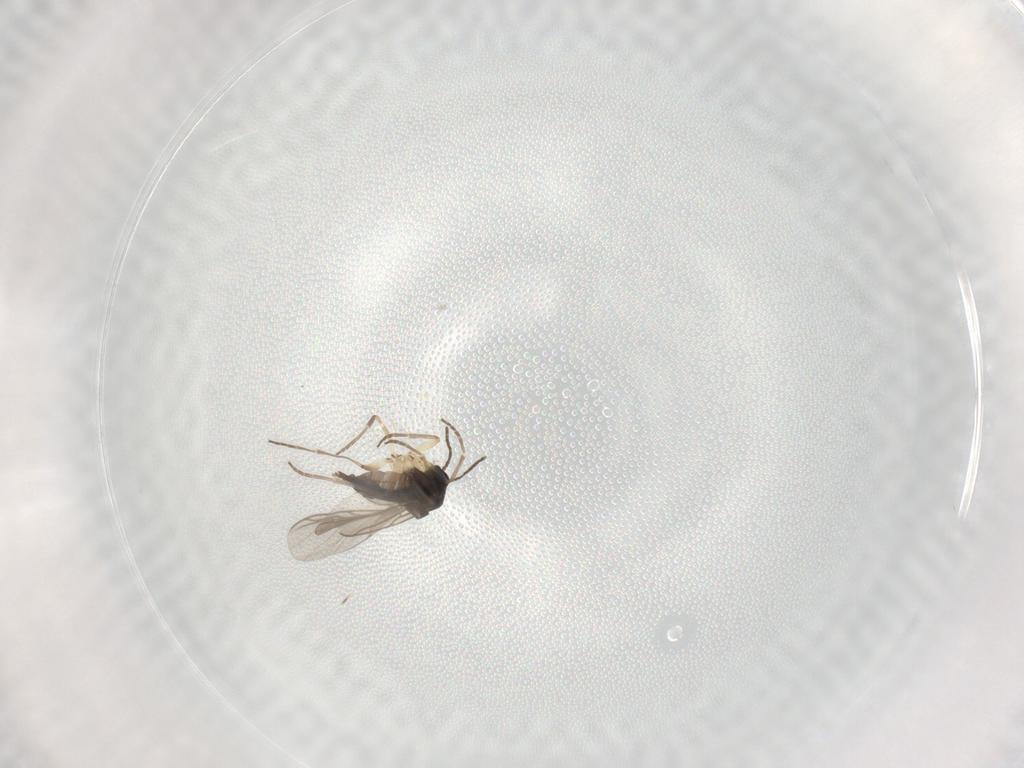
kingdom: Animalia
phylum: Arthropoda
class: Insecta
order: Diptera
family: Sciaridae
